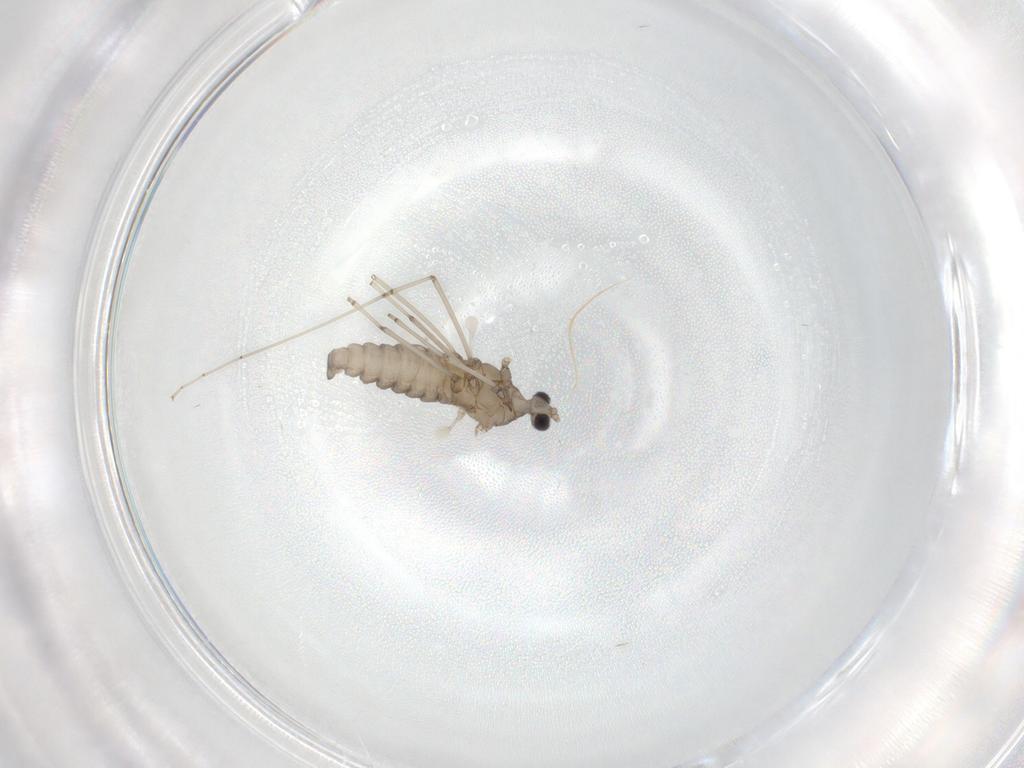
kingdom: Animalia
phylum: Arthropoda
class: Insecta
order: Diptera
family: Cecidomyiidae
